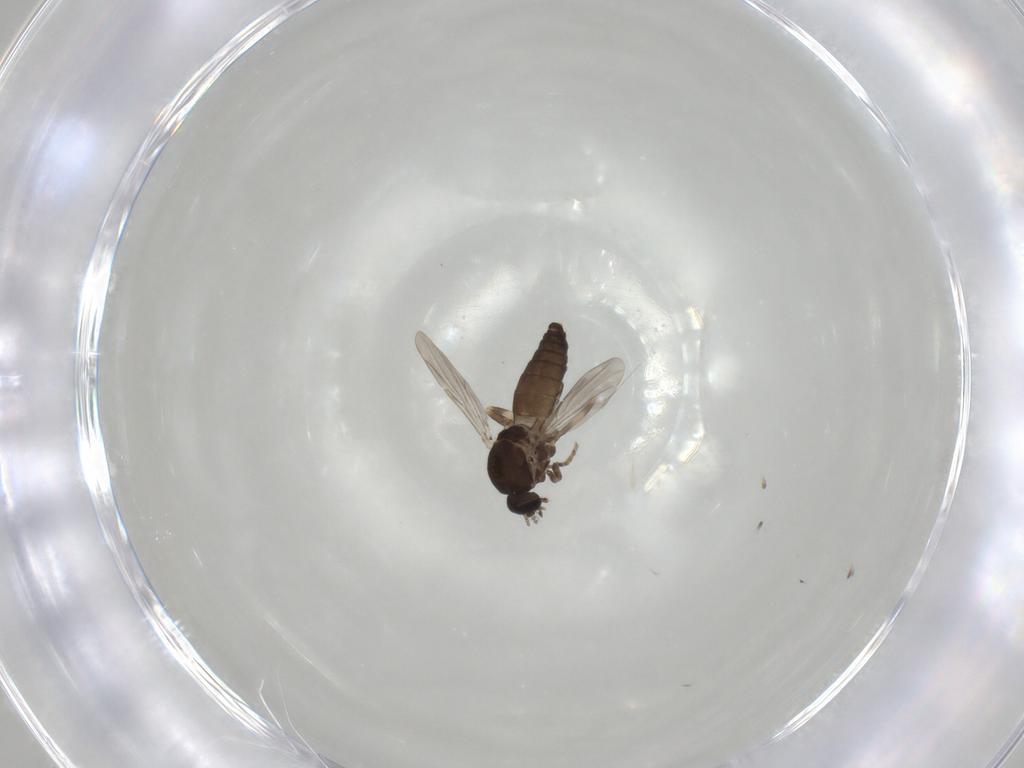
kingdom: Animalia
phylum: Arthropoda
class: Insecta
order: Diptera
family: Ceratopogonidae
